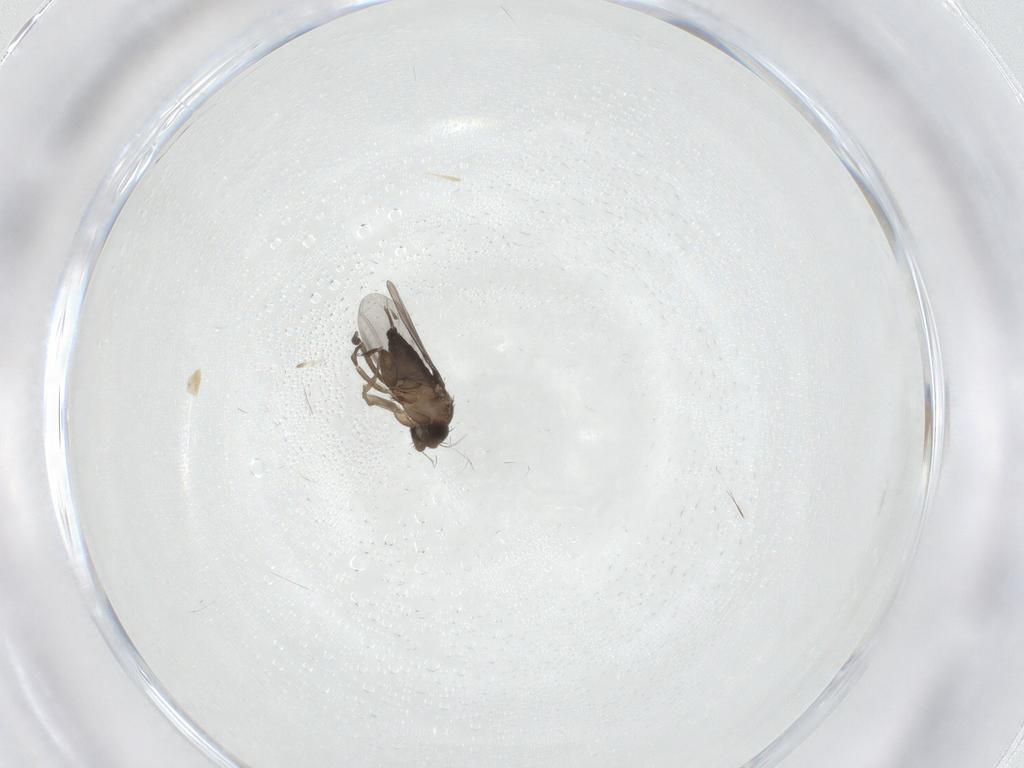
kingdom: Animalia
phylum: Arthropoda
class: Insecta
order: Diptera
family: Phoridae
